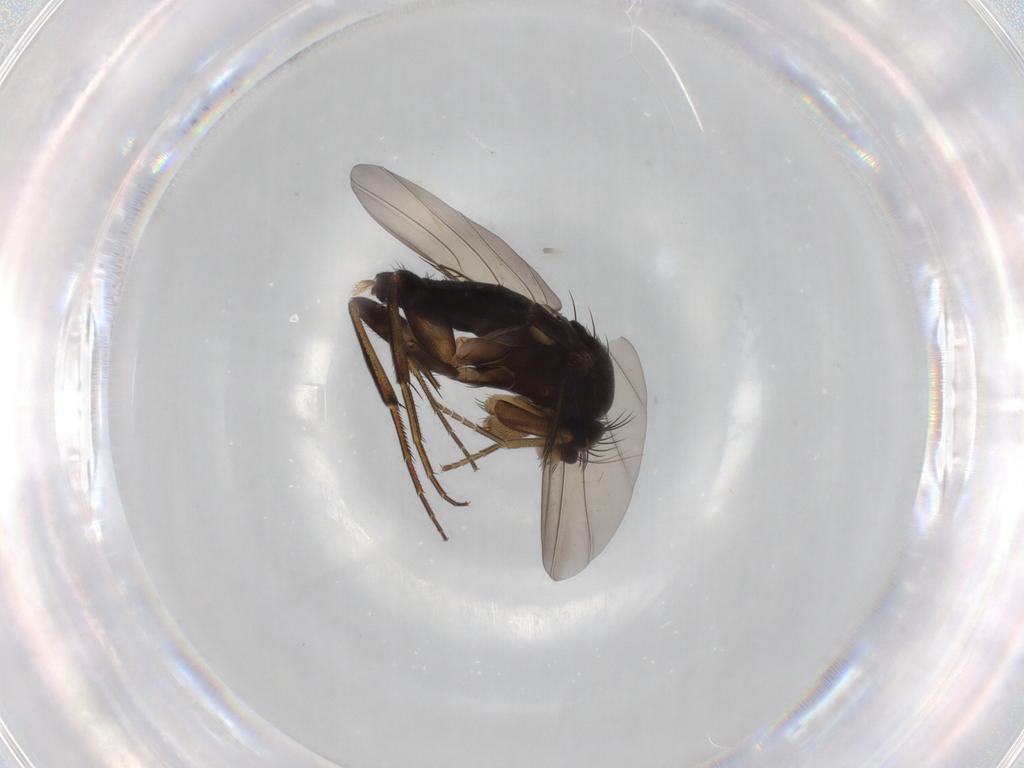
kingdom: Animalia
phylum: Arthropoda
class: Insecta
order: Diptera
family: Phoridae
